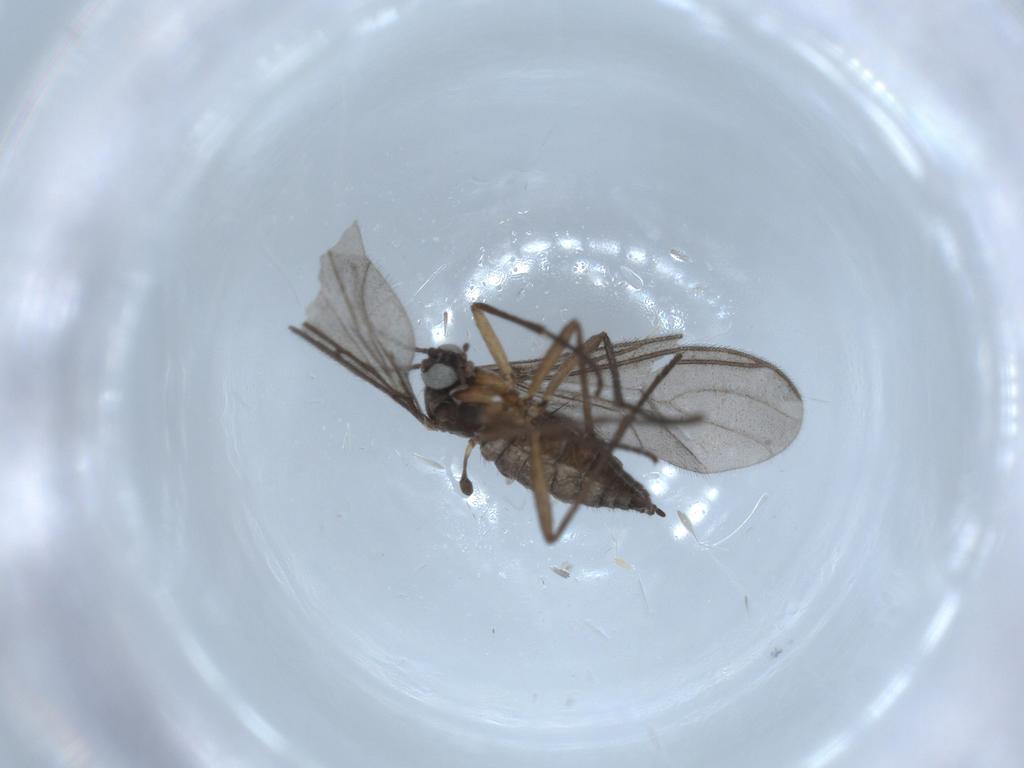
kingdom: Animalia
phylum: Arthropoda
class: Insecta
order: Diptera
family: Sciaridae
